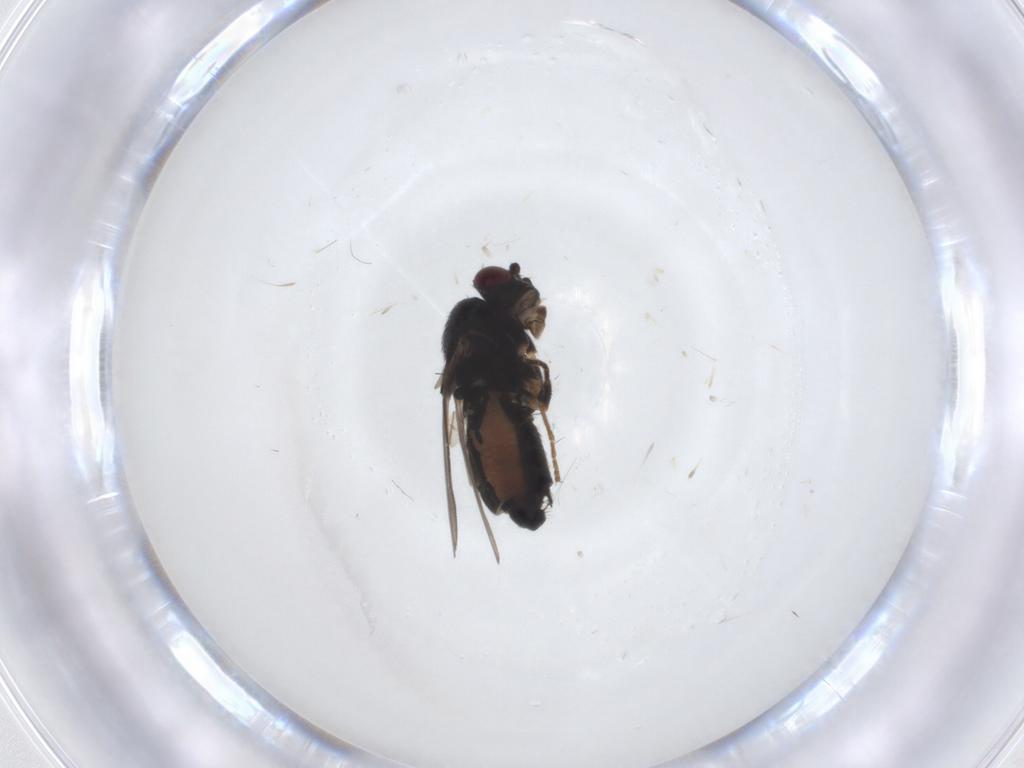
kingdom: Animalia
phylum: Arthropoda
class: Insecta
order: Diptera
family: Sphaeroceridae
